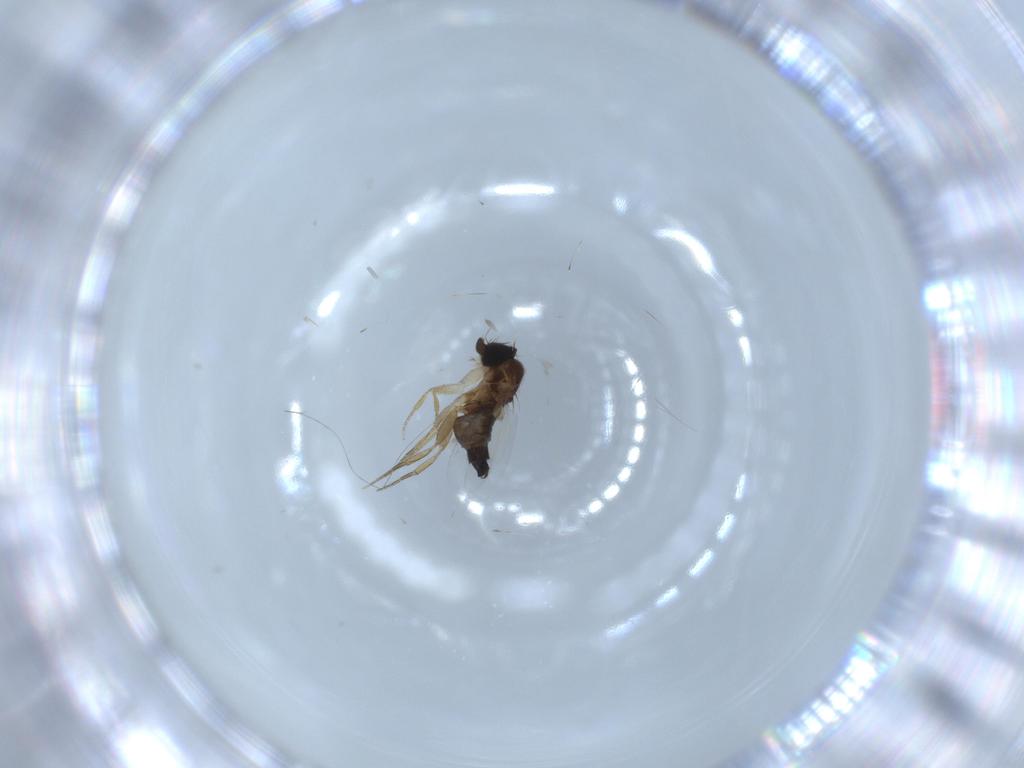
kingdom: Animalia
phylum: Arthropoda
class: Insecta
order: Diptera
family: Phoridae
